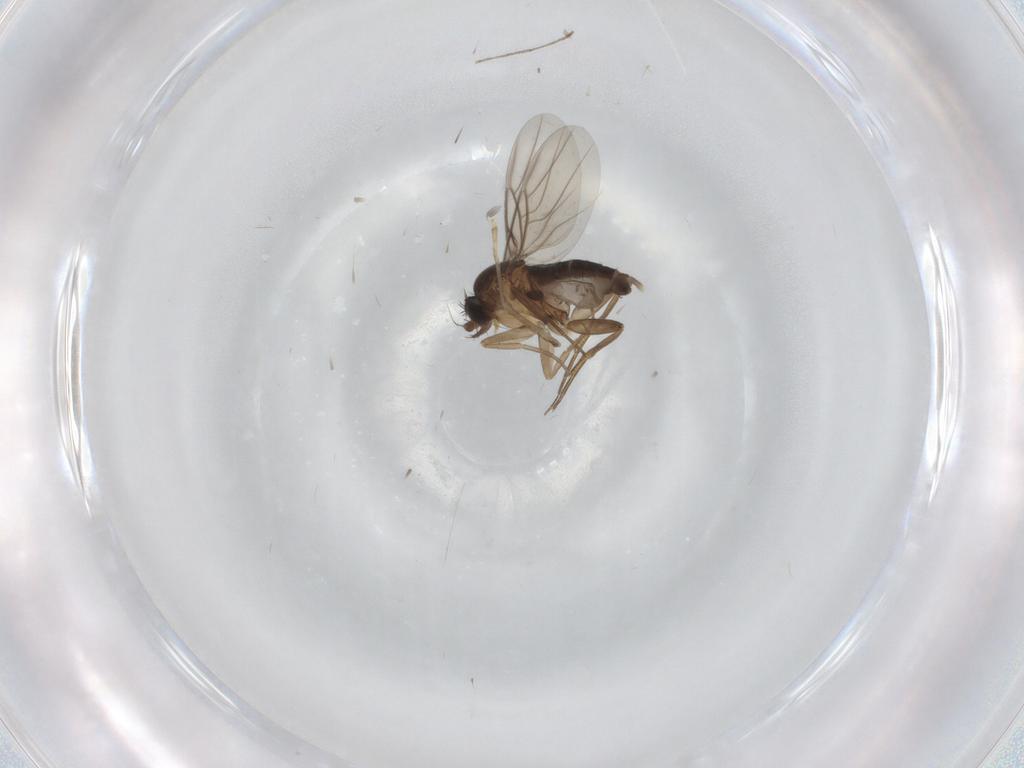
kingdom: Animalia
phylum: Arthropoda
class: Insecta
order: Diptera
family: Phoridae
